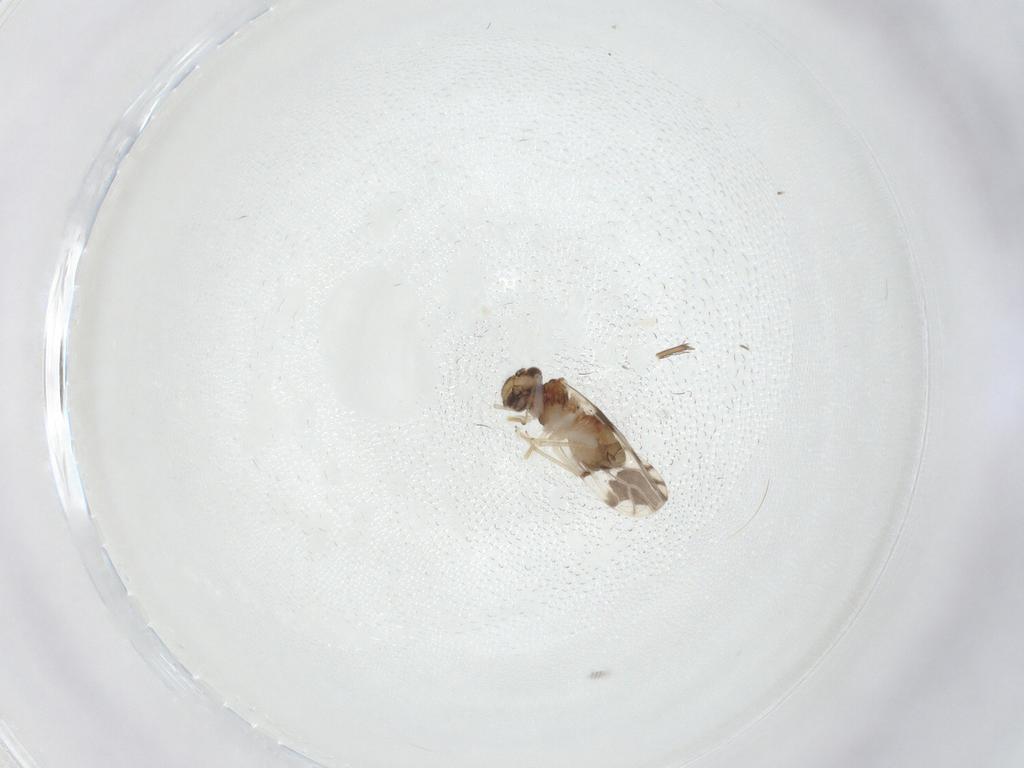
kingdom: Animalia
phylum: Arthropoda
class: Insecta
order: Psocodea
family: Ectopsocidae
